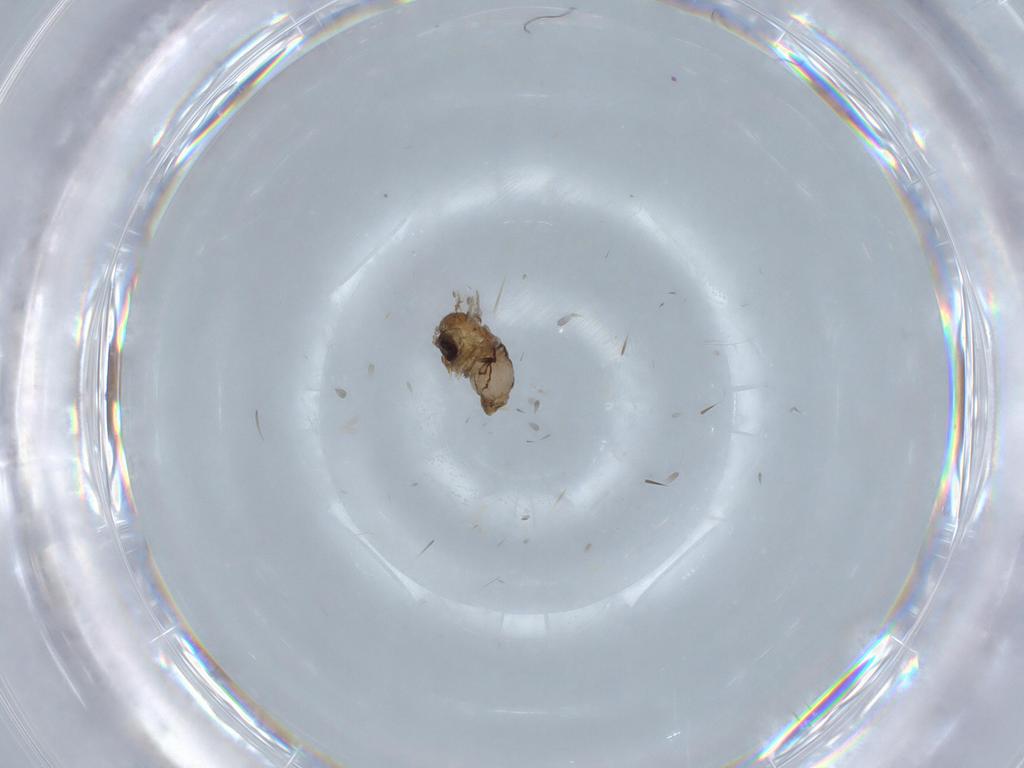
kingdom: Animalia
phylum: Arthropoda
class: Insecta
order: Diptera
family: Psychodidae
